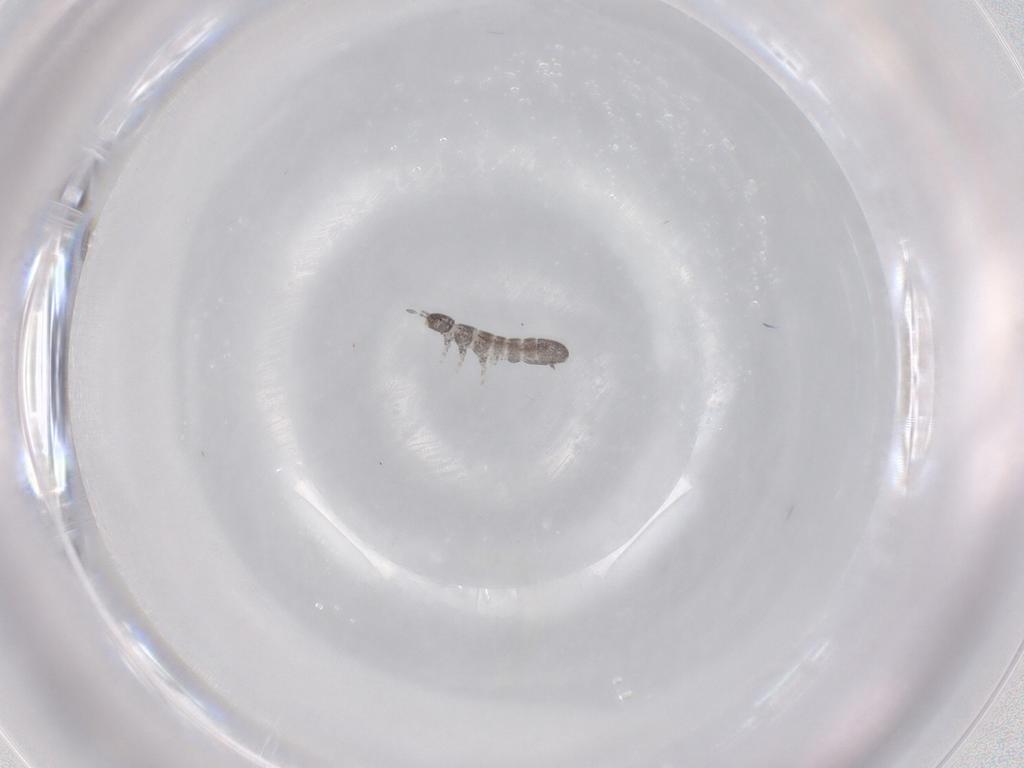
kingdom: Animalia
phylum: Arthropoda
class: Collembola
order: Entomobryomorpha
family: Isotomidae
